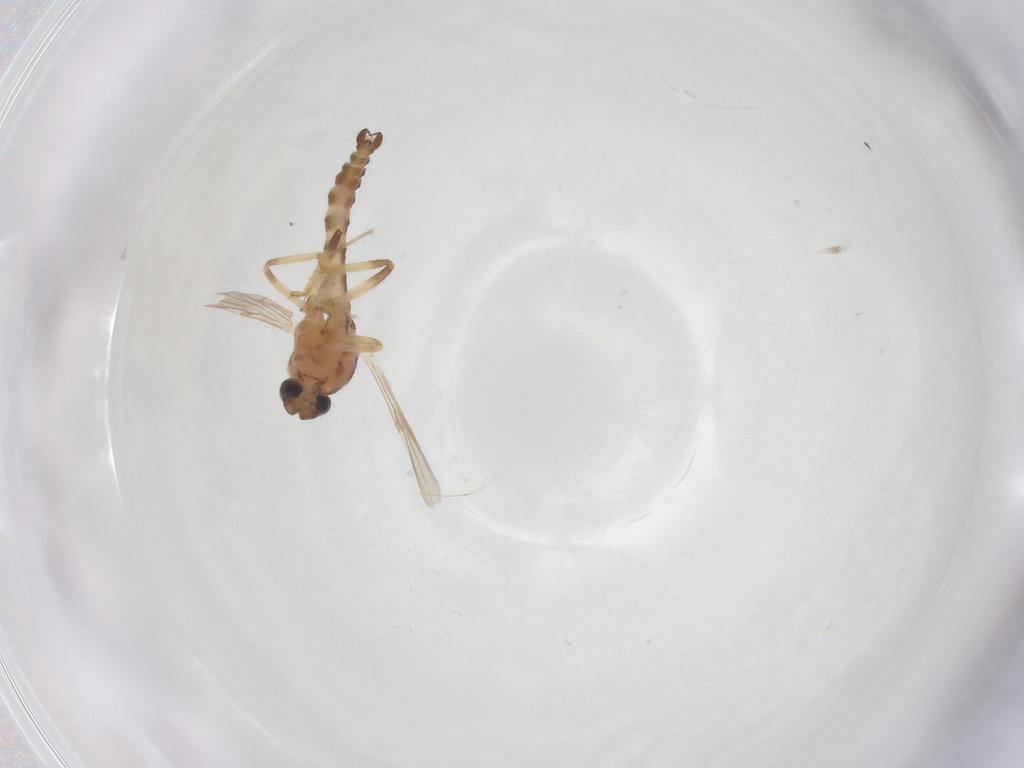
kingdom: Animalia
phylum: Arthropoda
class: Insecta
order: Diptera
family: Ceratopogonidae
